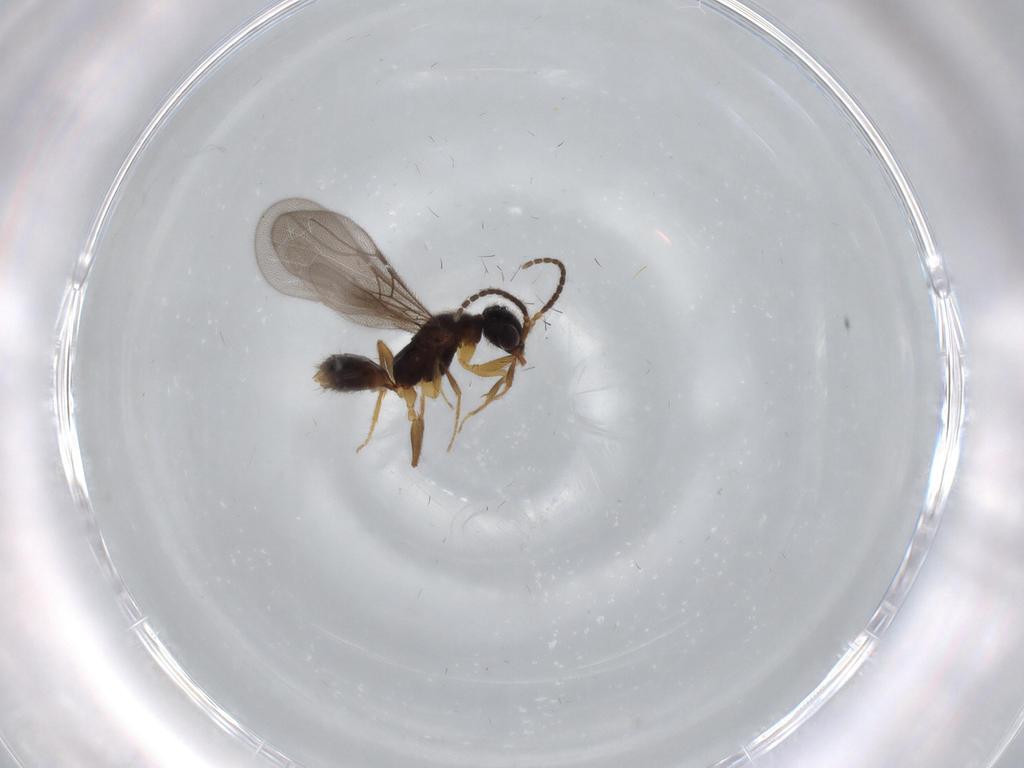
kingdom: Animalia
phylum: Arthropoda
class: Insecta
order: Hymenoptera
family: Bethylidae
